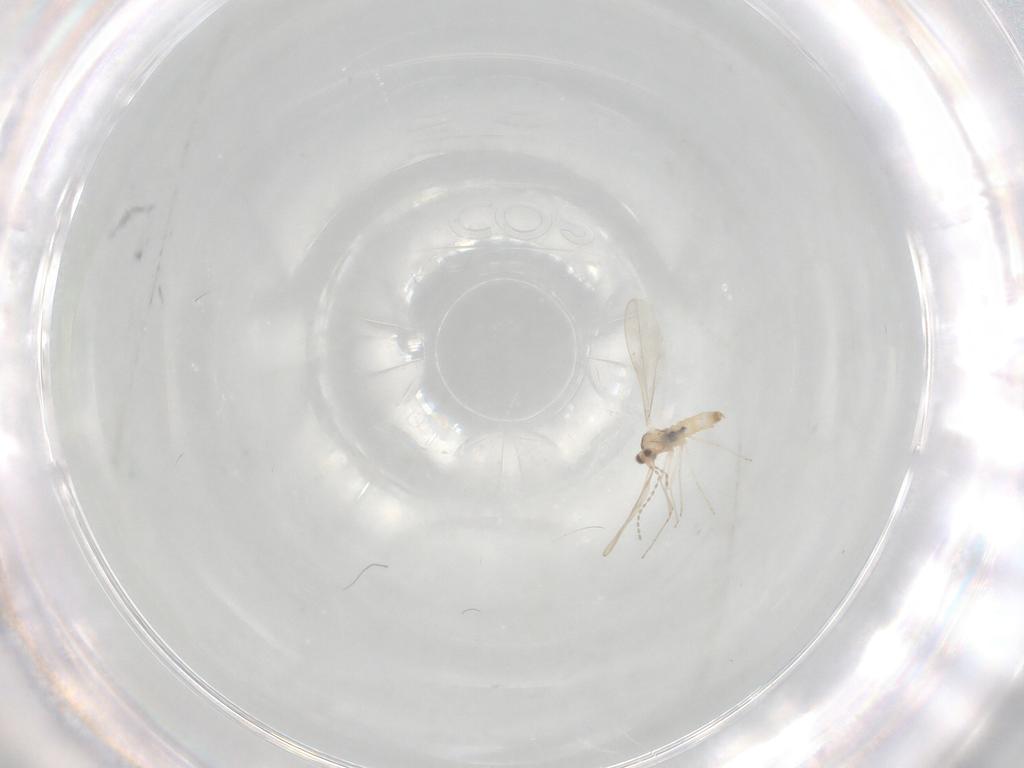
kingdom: Animalia
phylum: Arthropoda
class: Insecta
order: Diptera
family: Cecidomyiidae
